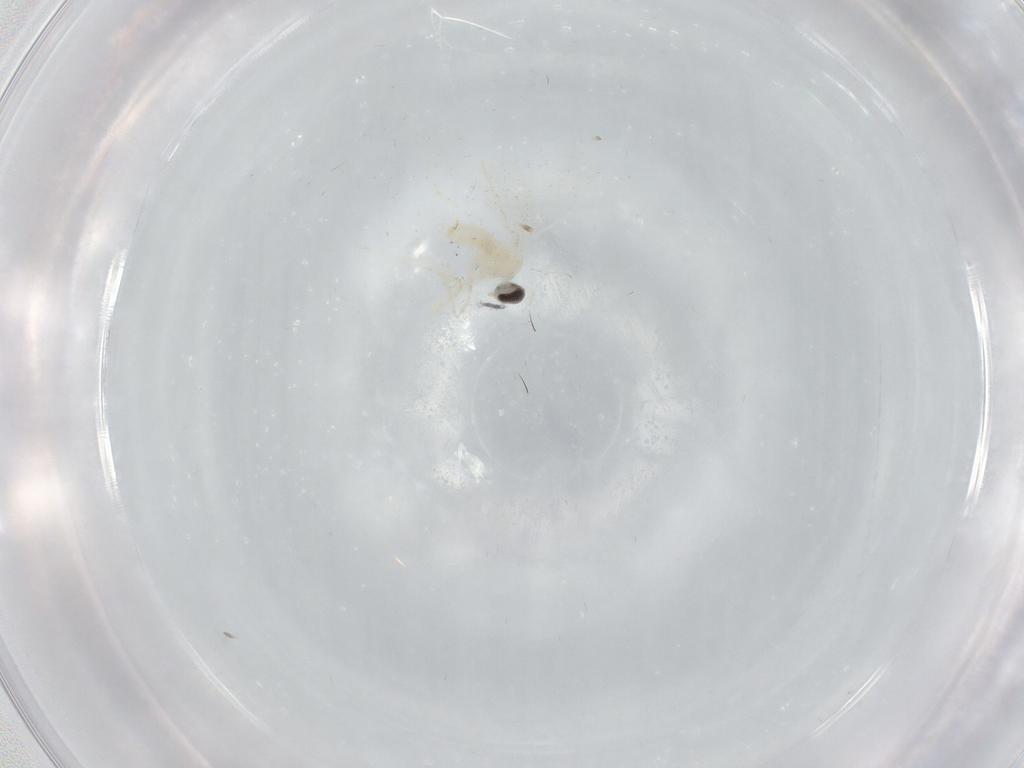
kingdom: Animalia
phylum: Arthropoda
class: Insecta
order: Diptera
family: Cecidomyiidae
